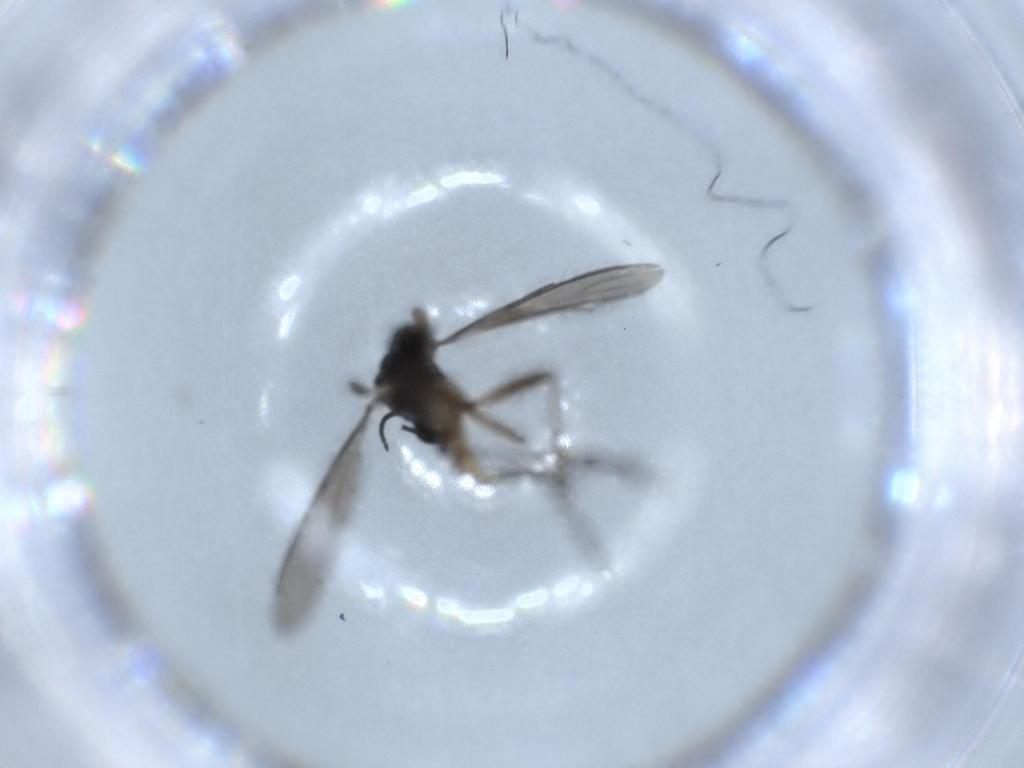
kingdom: Animalia
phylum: Arthropoda
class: Insecta
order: Diptera
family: Sciaridae
